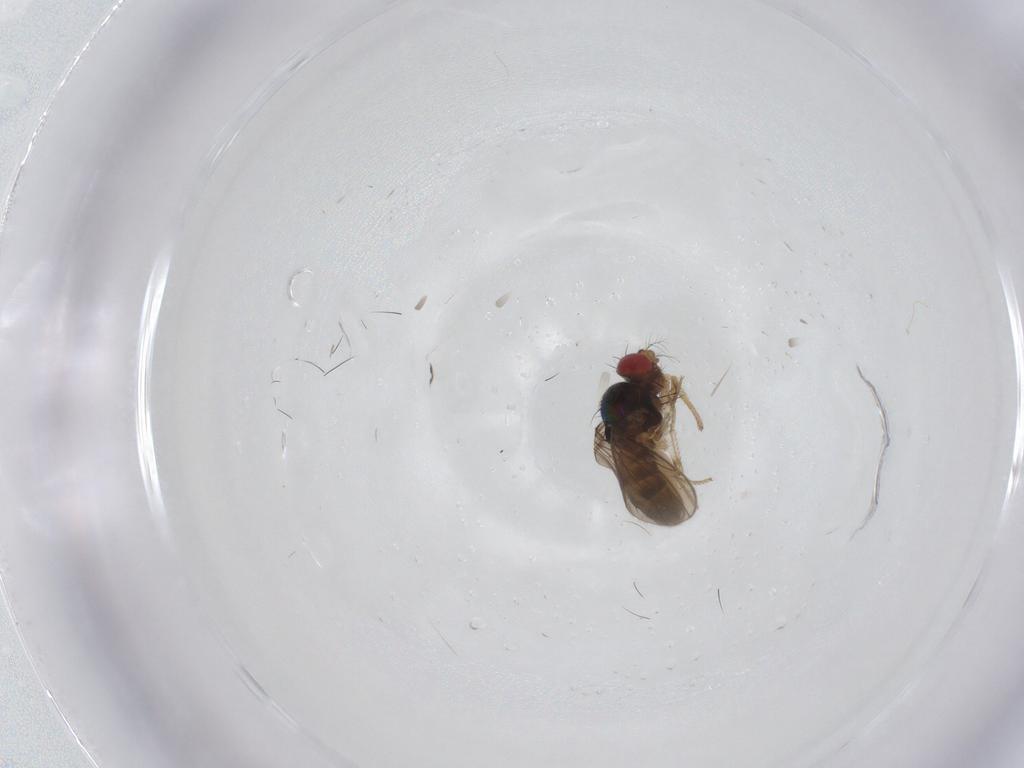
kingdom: Animalia
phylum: Arthropoda
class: Insecta
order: Diptera
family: Drosophilidae
